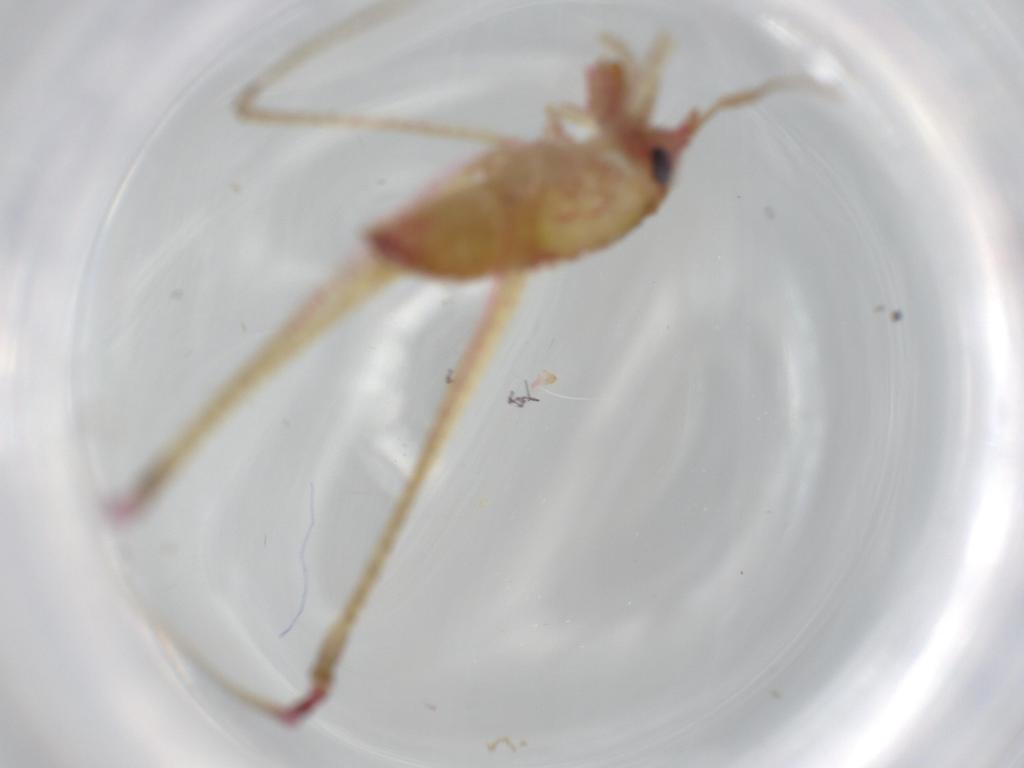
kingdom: Animalia
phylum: Arthropoda
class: Insecta
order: Orthoptera
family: Tettigoniidae
